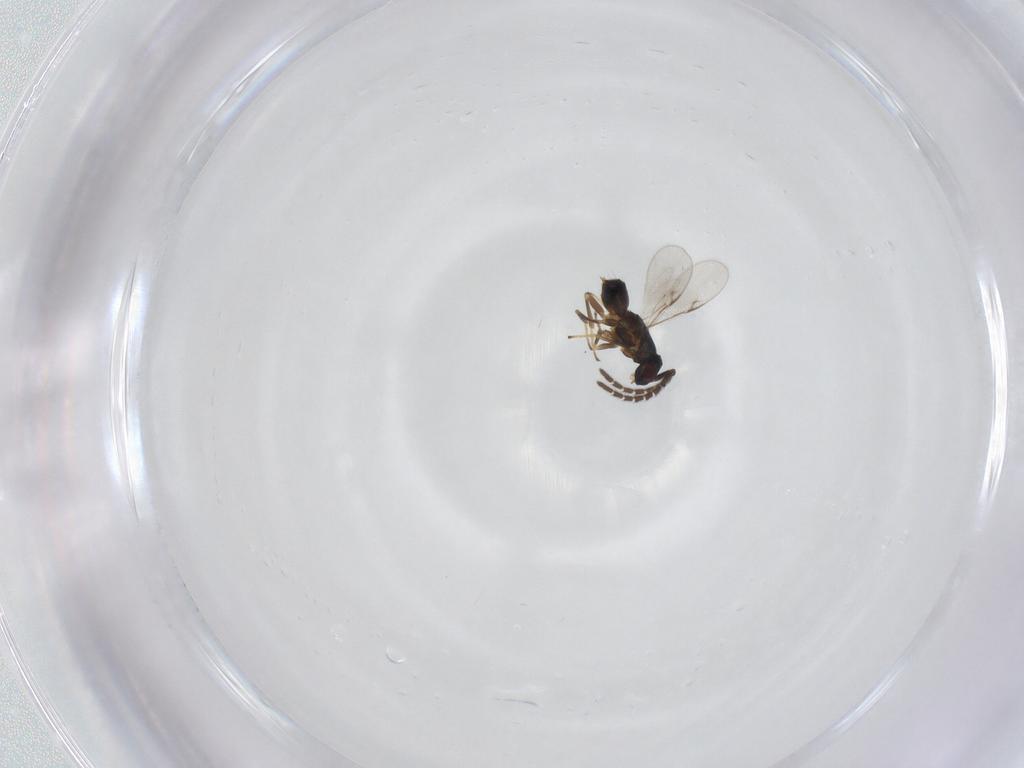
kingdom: Animalia
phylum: Arthropoda
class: Insecta
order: Hymenoptera
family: Encyrtidae
